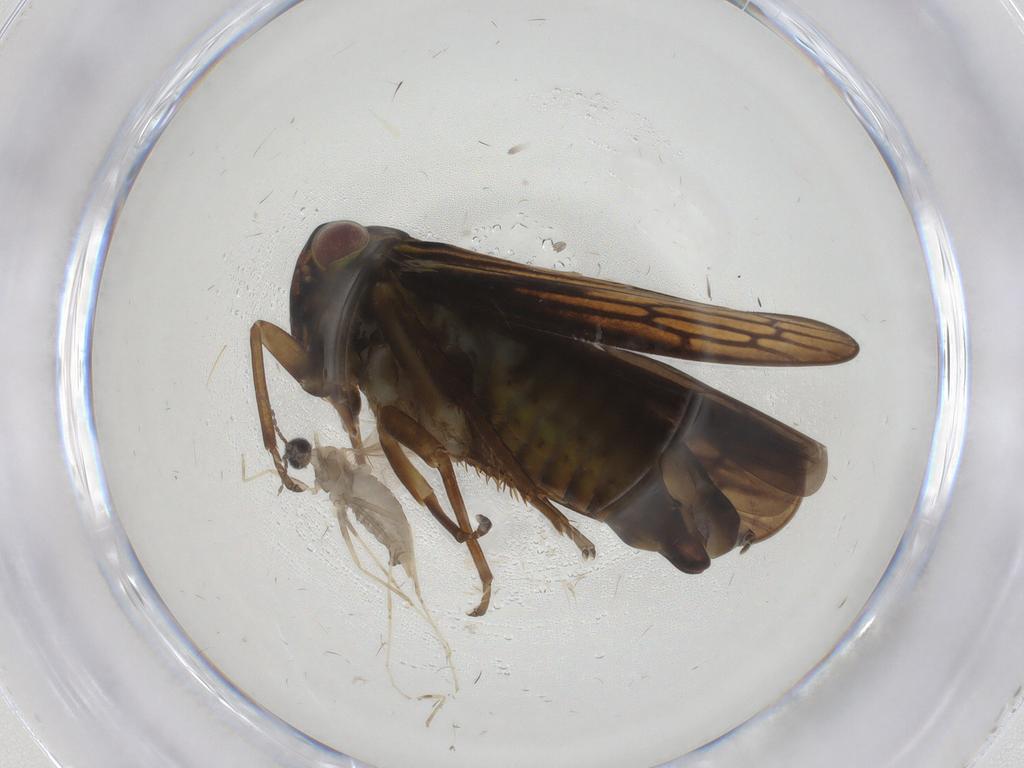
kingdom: Animalia
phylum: Arthropoda
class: Insecta
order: Diptera
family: Cecidomyiidae
